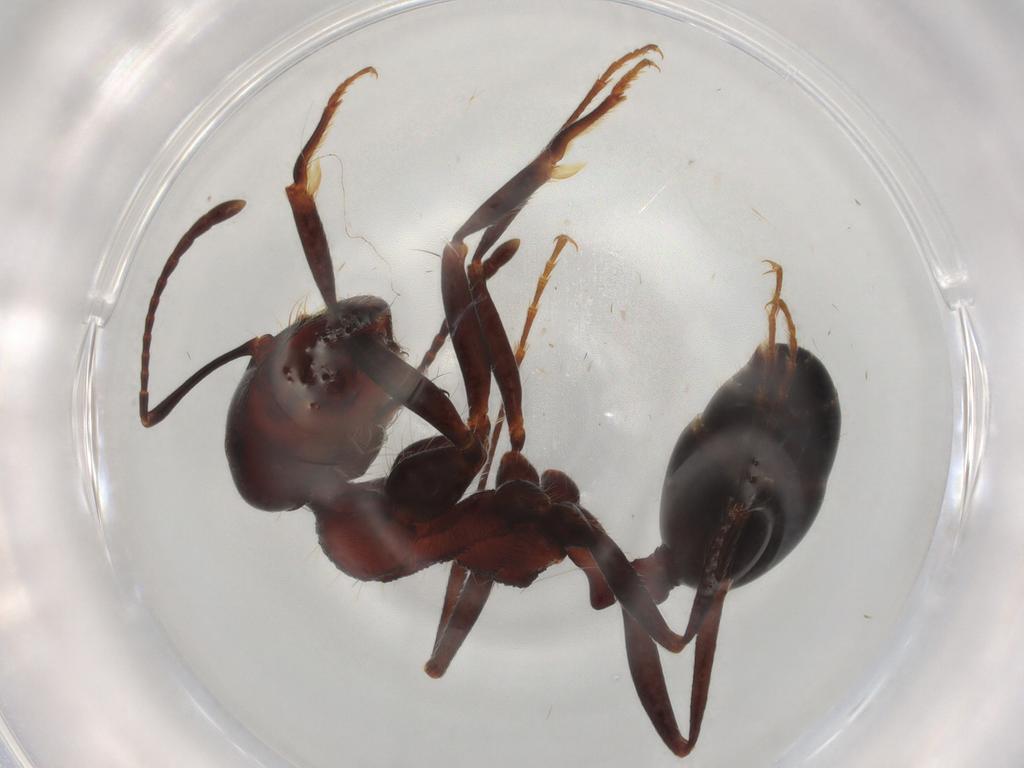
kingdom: Animalia
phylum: Arthropoda
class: Insecta
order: Hymenoptera
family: Formicidae
